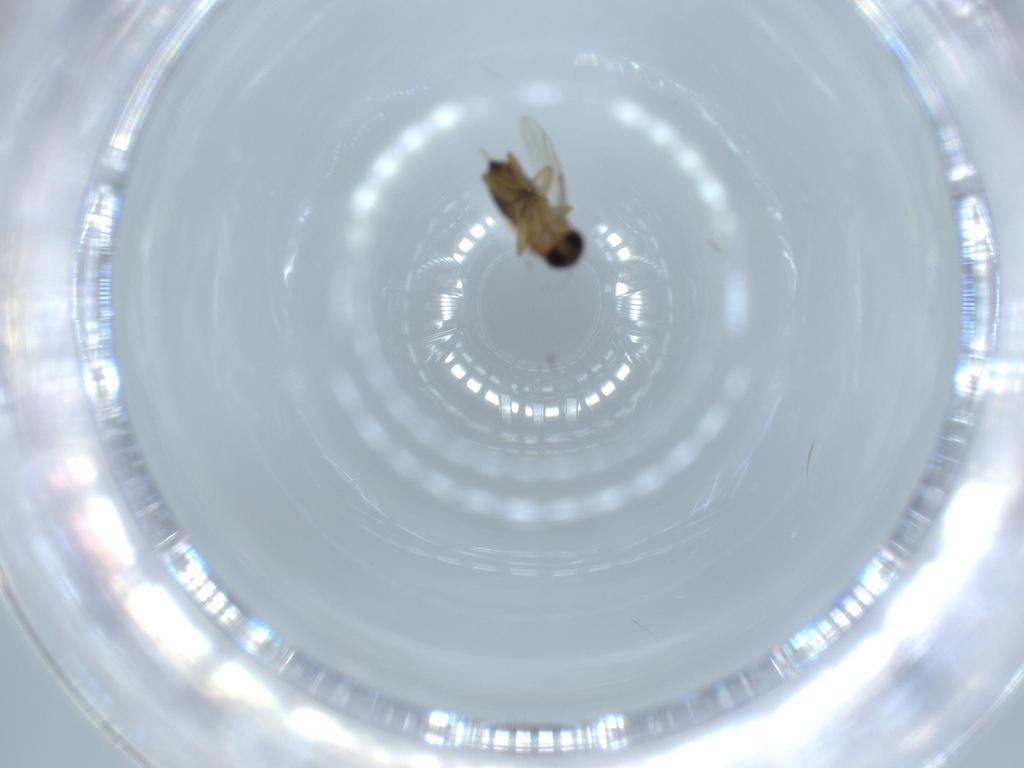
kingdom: Animalia
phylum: Arthropoda
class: Insecta
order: Diptera
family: Phoridae
